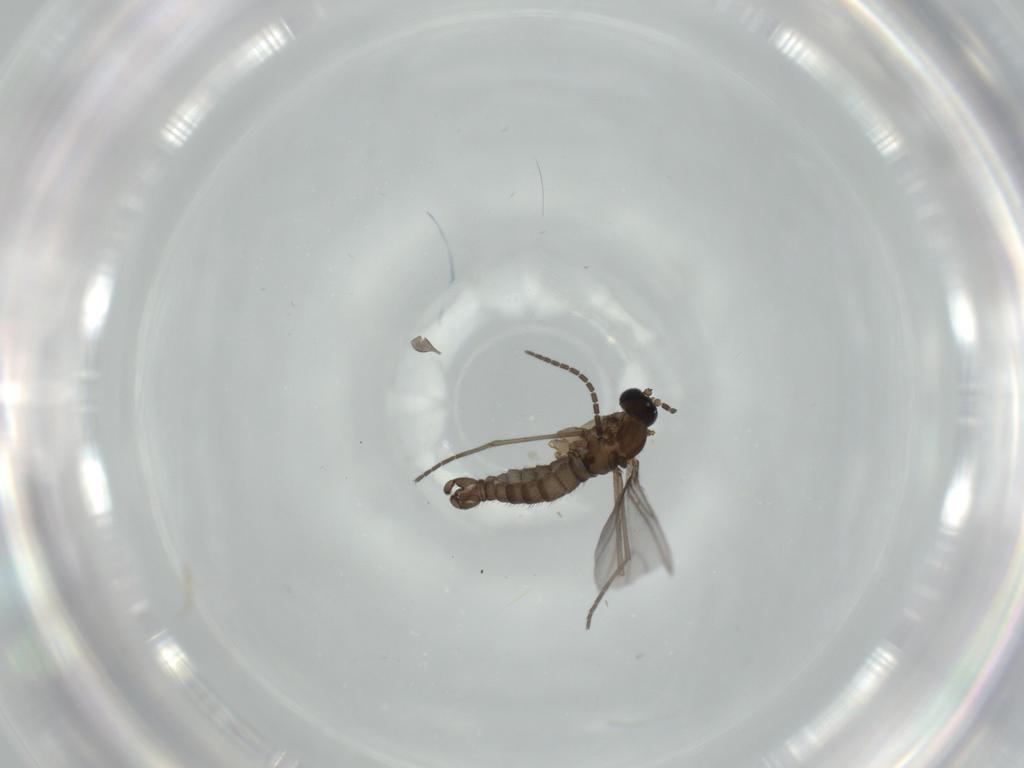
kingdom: Animalia
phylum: Arthropoda
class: Insecta
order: Diptera
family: Sciaridae
